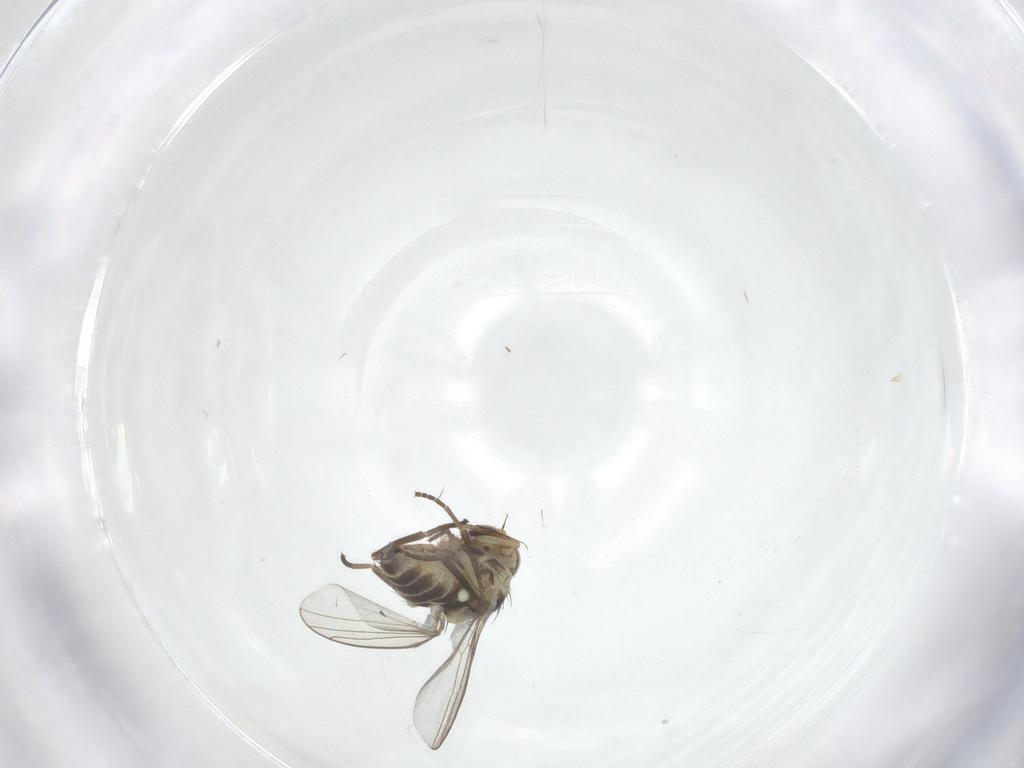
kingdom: Animalia
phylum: Arthropoda
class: Insecta
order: Diptera
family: Agromyzidae
